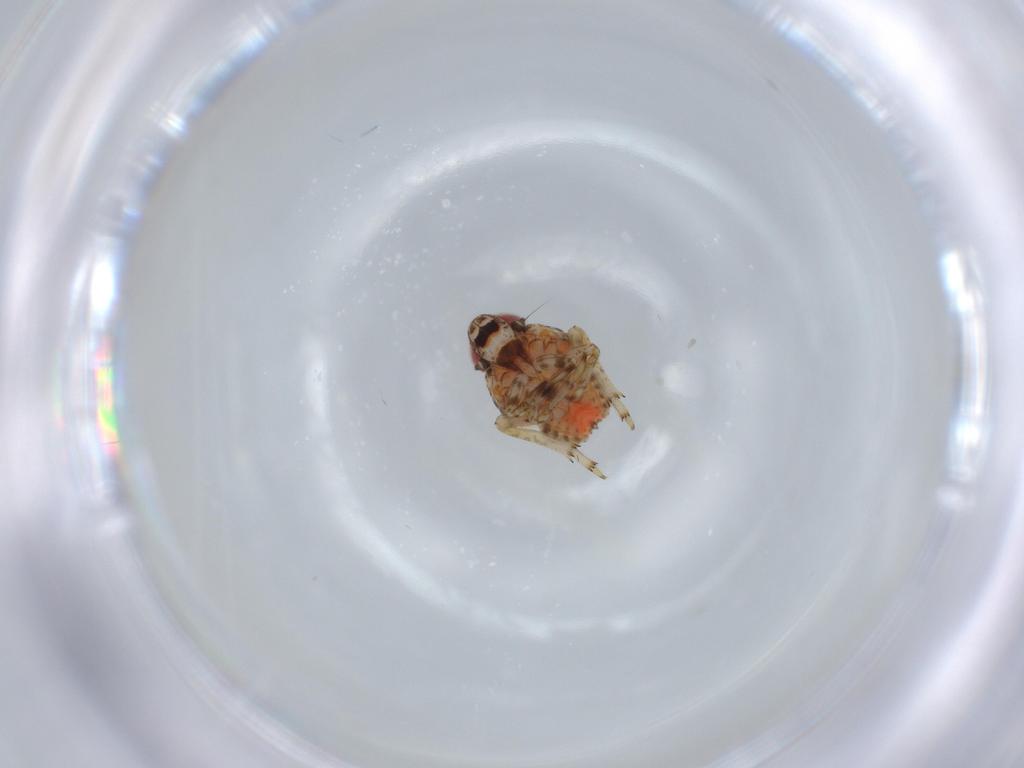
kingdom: Animalia
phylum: Arthropoda
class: Insecta
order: Hemiptera
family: Issidae
